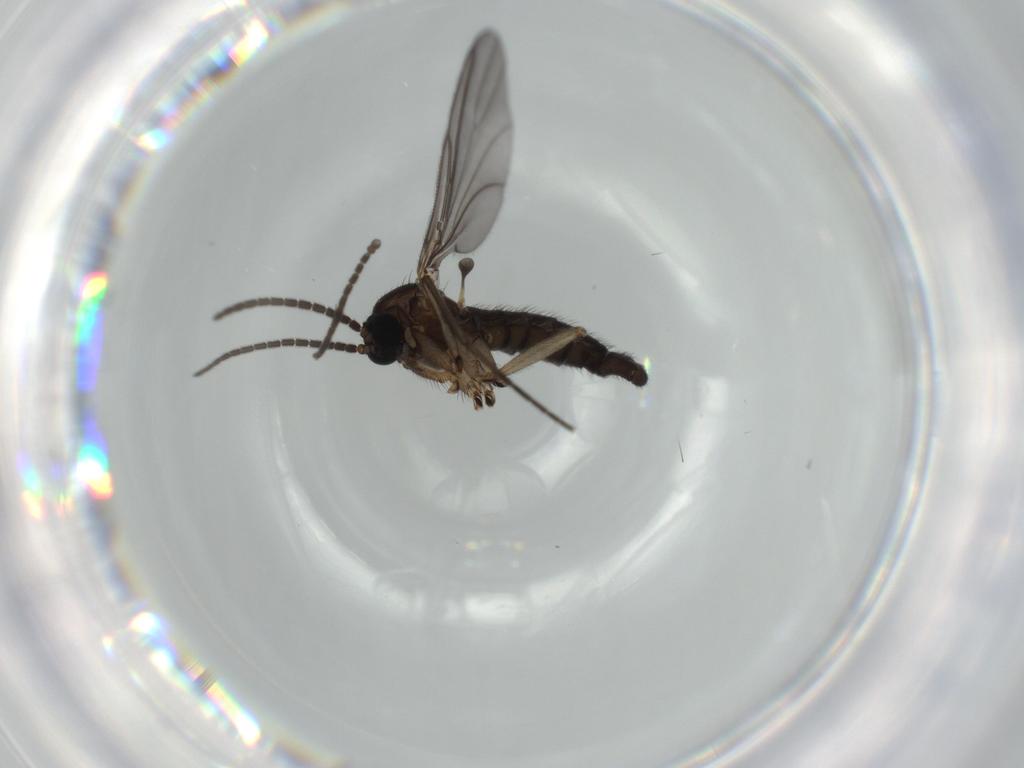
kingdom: Animalia
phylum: Arthropoda
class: Insecta
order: Diptera
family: Sciaridae
